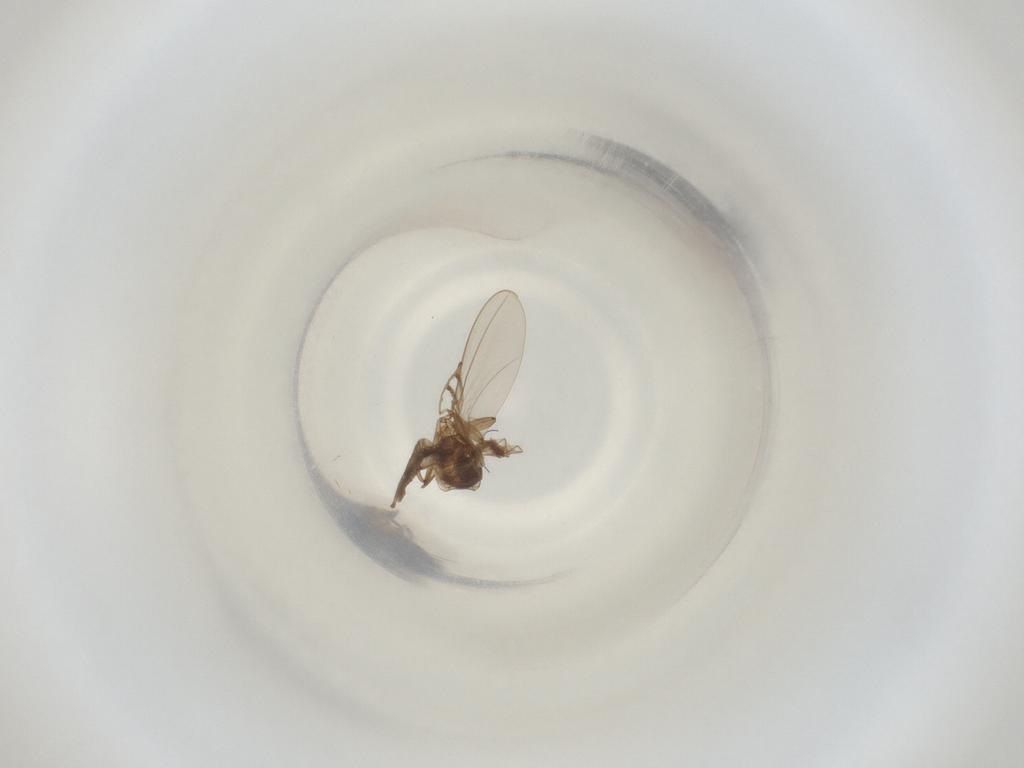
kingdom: Animalia
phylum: Arthropoda
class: Insecta
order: Diptera
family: Cecidomyiidae
